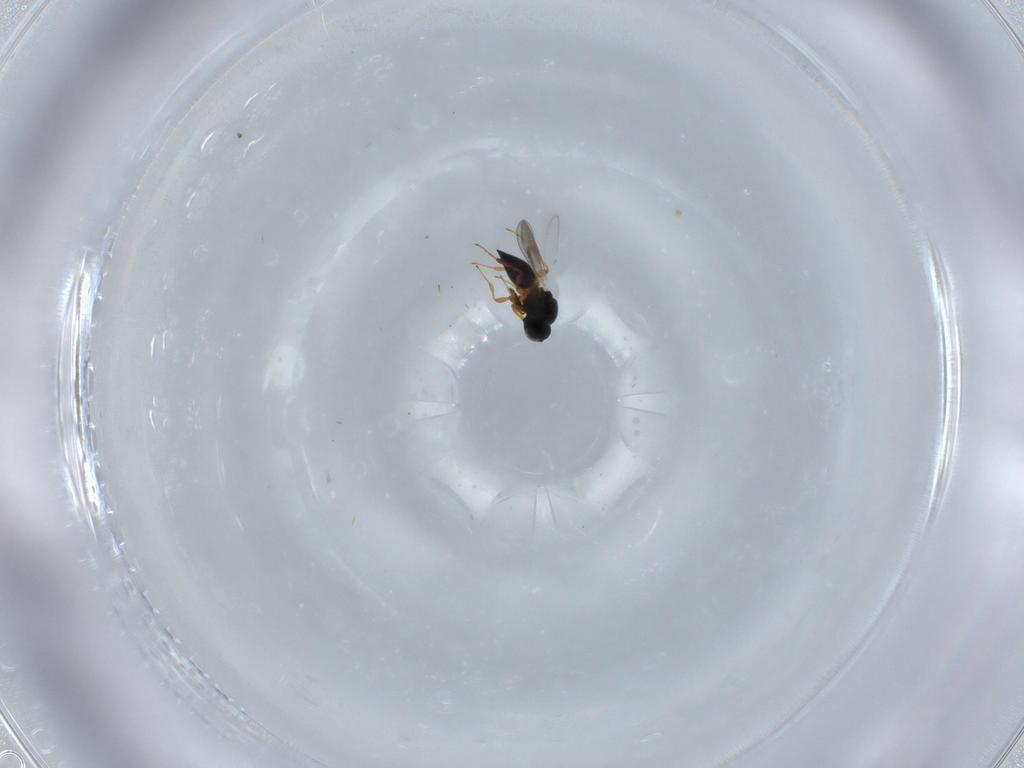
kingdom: Animalia
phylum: Arthropoda
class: Insecta
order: Hymenoptera
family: Platygastridae
